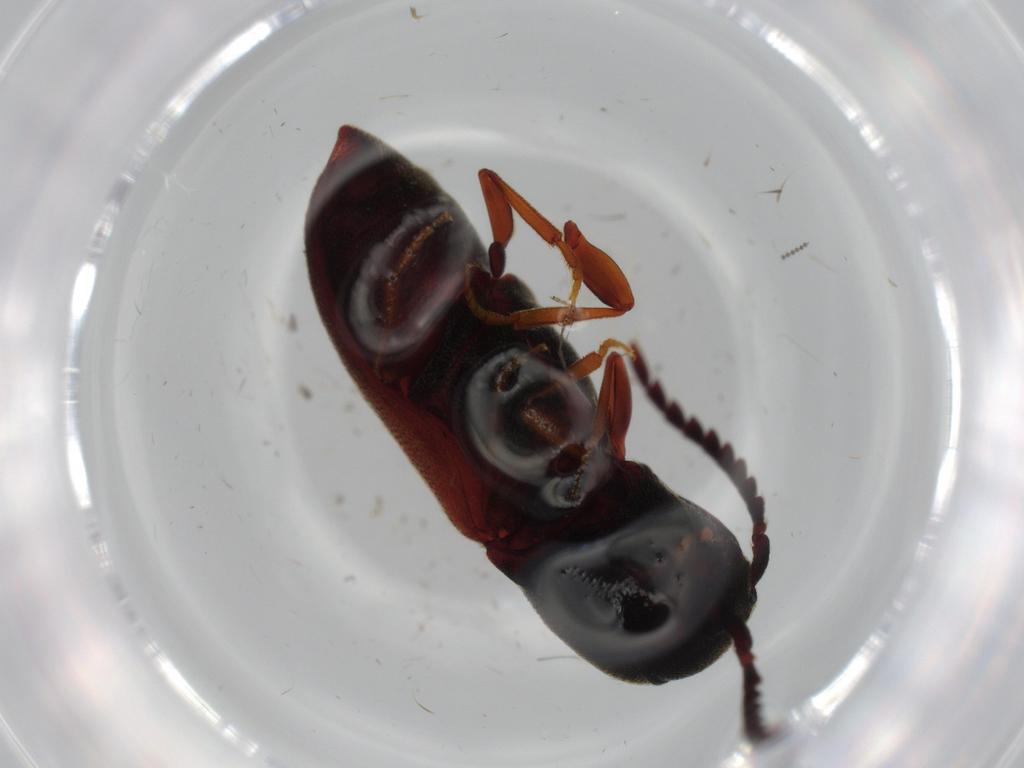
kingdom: Animalia
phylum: Arthropoda
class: Insecta
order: Coleoptera
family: Eucnemidae
